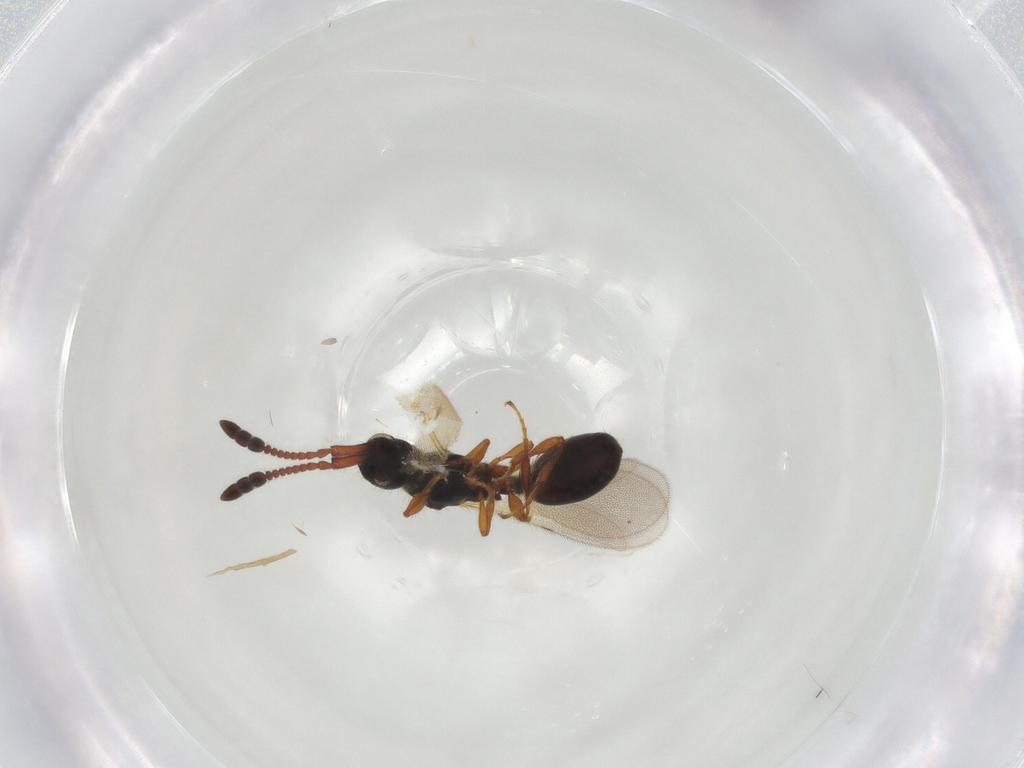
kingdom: Animalia
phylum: Arthropoda
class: Insecta
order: Hymenoptera
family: Diapriidae
